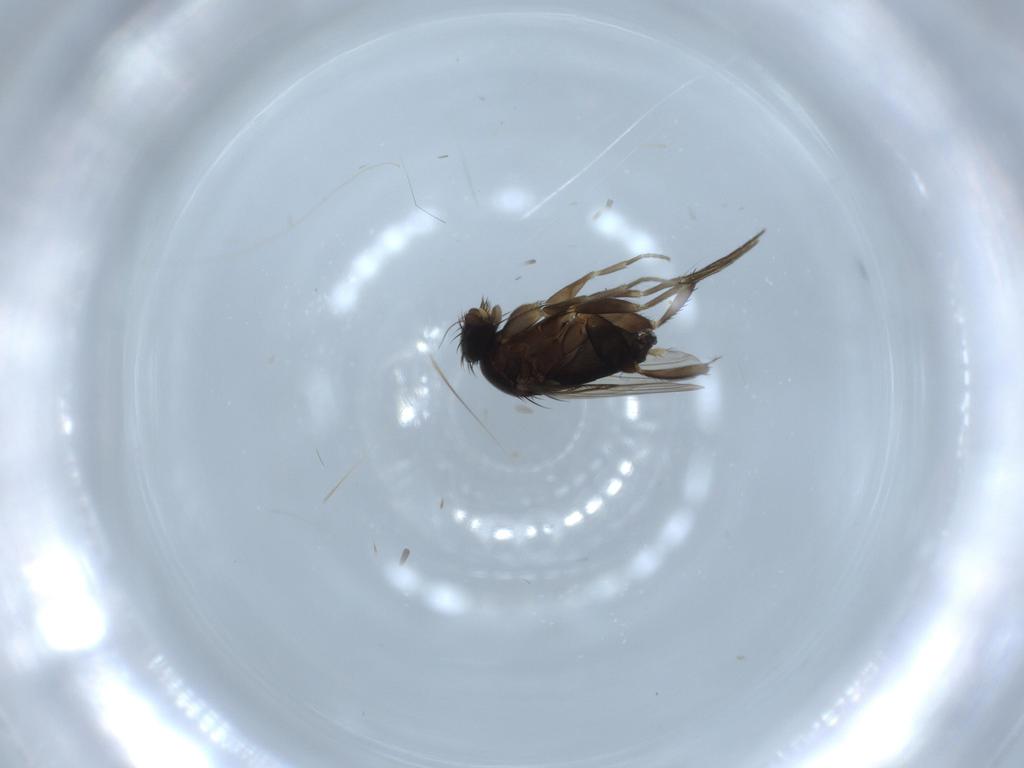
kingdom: Animalia
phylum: Arthropoda
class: Insecta
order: Diptera
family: Phoridae
